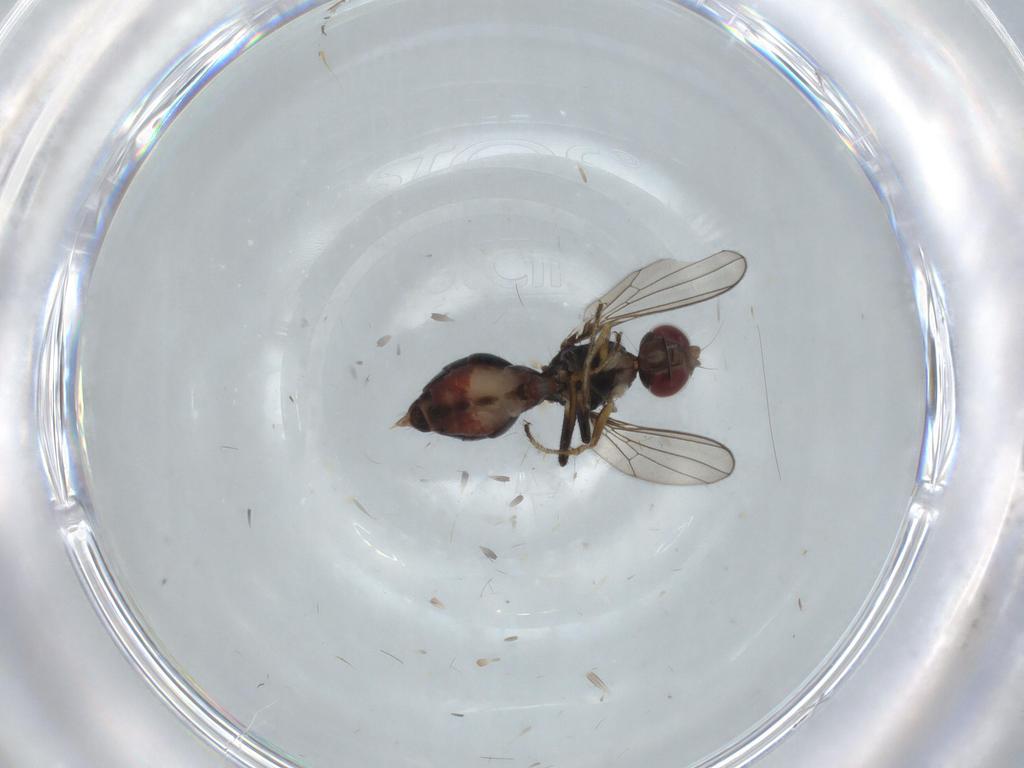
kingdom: Animalia
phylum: Arthropoda
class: Insecta
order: Diptera
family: Sepsidae
